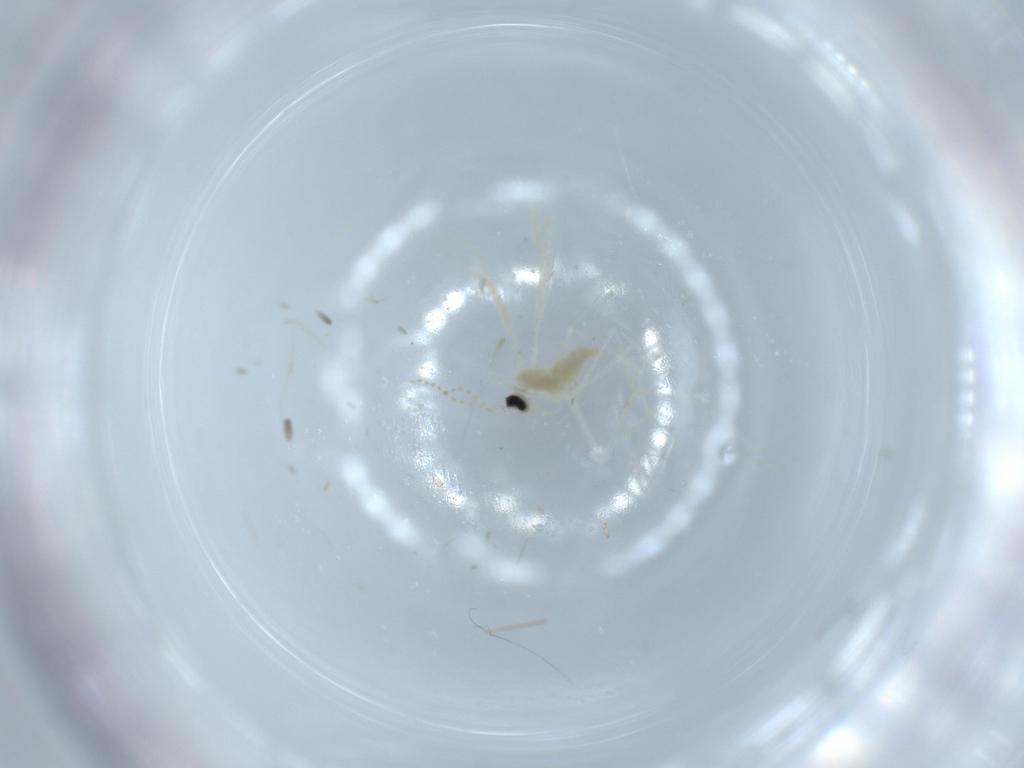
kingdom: Animalia
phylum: Arthropoda
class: Insecta
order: Diptera
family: Cecidomyiidae
